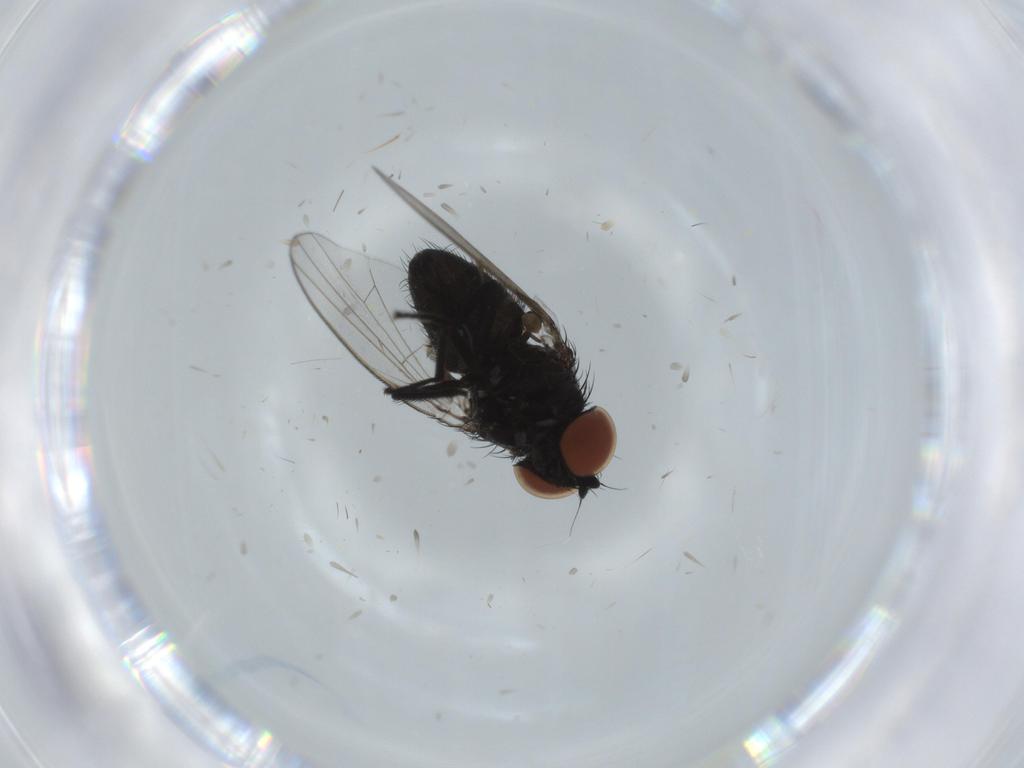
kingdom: Animalia
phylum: Arthropoda
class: Insecta
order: Diptera
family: Milichiidae
